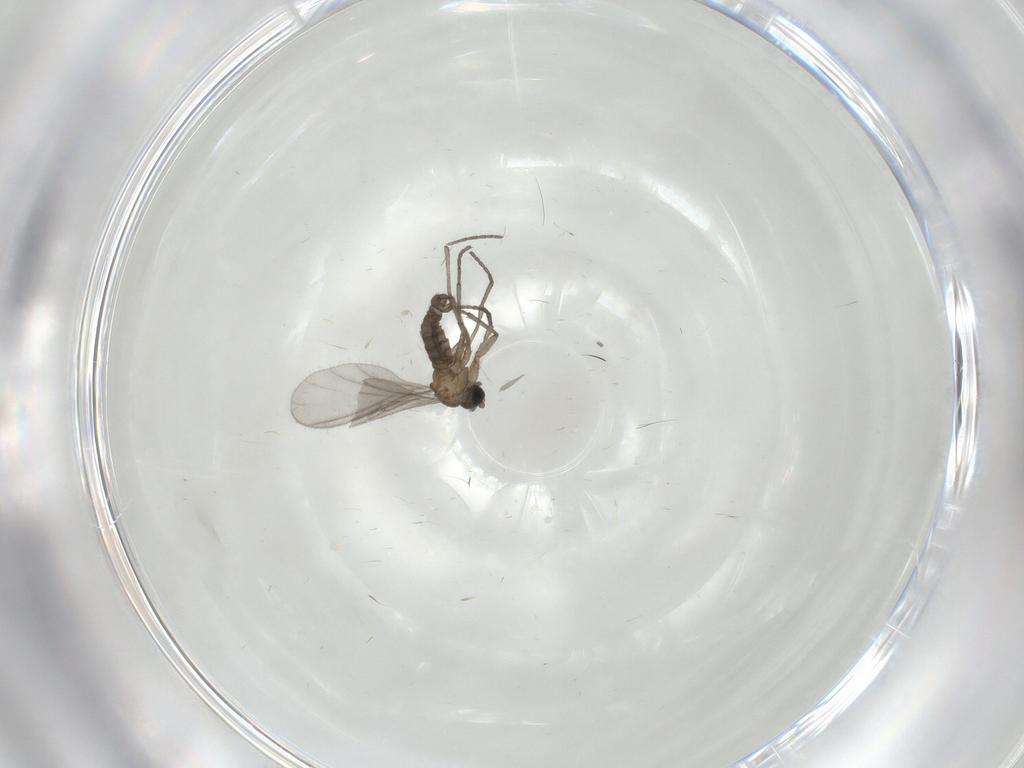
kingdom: Animalia
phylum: Arthropoda
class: Insecta
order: Diptera
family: Sciaridae
